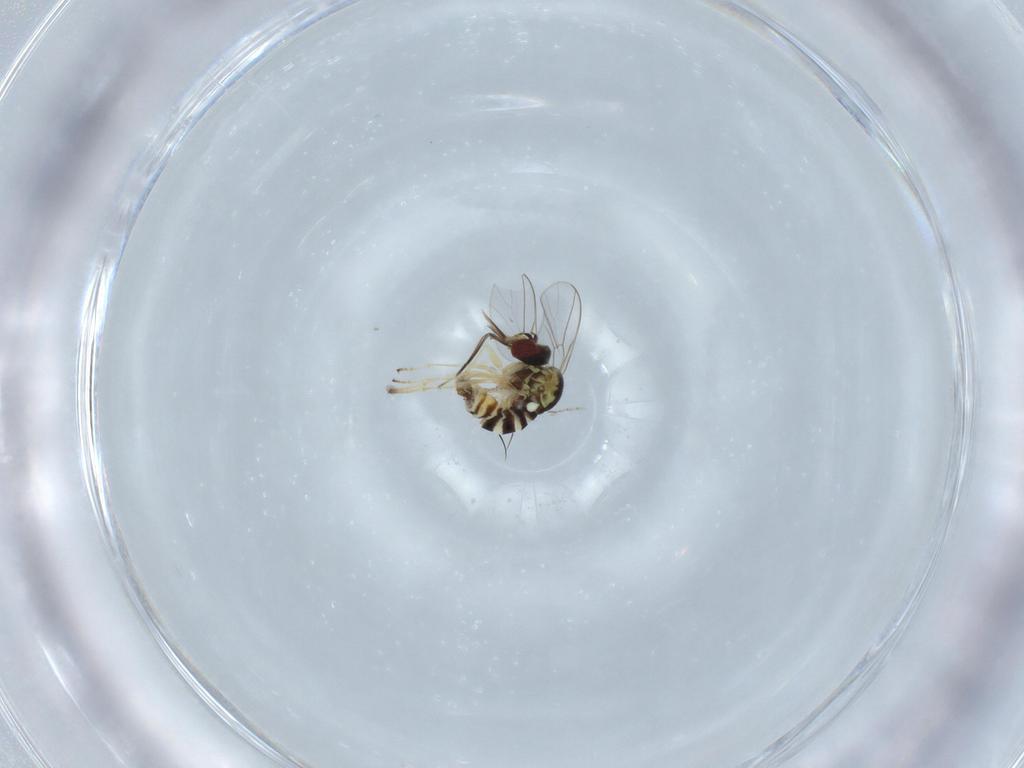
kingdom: Animalia
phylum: Arthropoda
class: Insecta
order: Diptera
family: Bombyliidae
